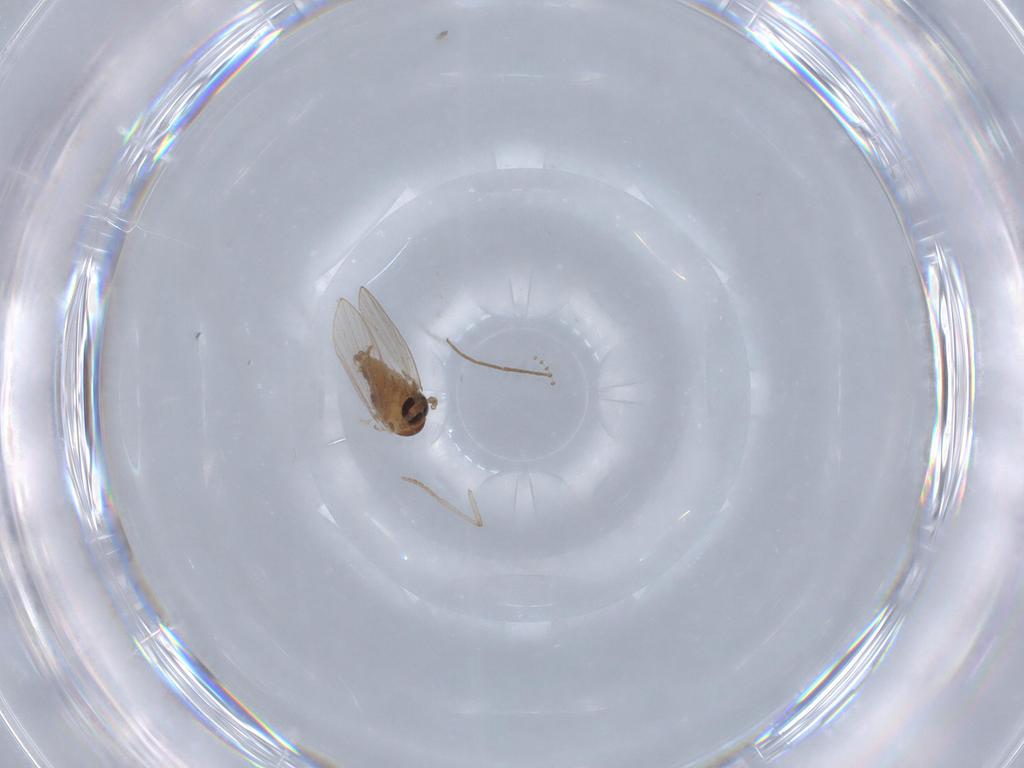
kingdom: Animalia
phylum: Arthropoda
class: Insecta
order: Diptera
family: Psychodidae
